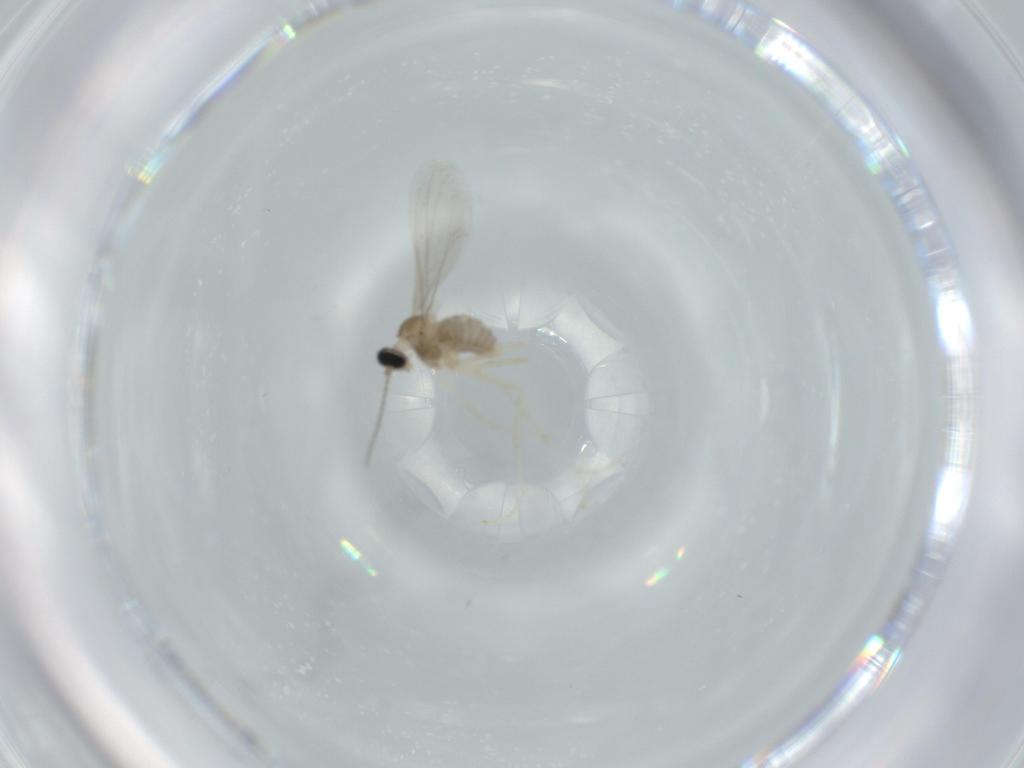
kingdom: Animalia
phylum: Arthropoda
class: Insecta
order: Diptera
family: Cecidomyiidae
